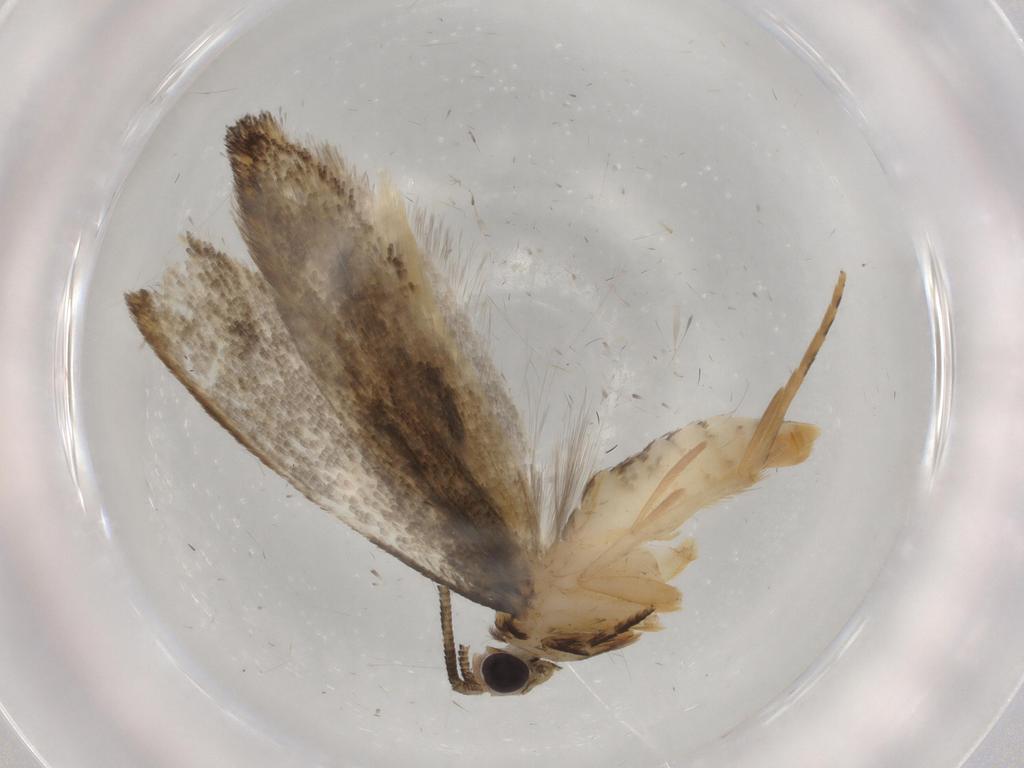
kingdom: Animalia
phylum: Arthropoda
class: Insecta
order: Lepidoptera
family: Tineidae
